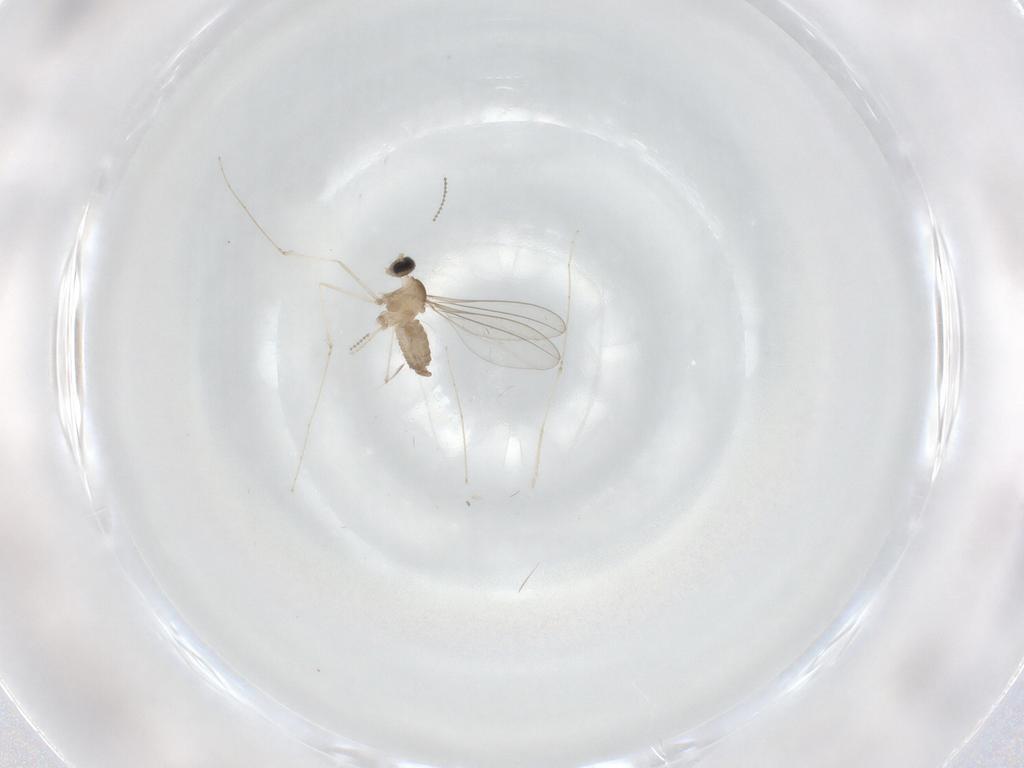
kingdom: Animalia
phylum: Arthropoda
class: Insecta
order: Diptera
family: Cecidomyiidae
